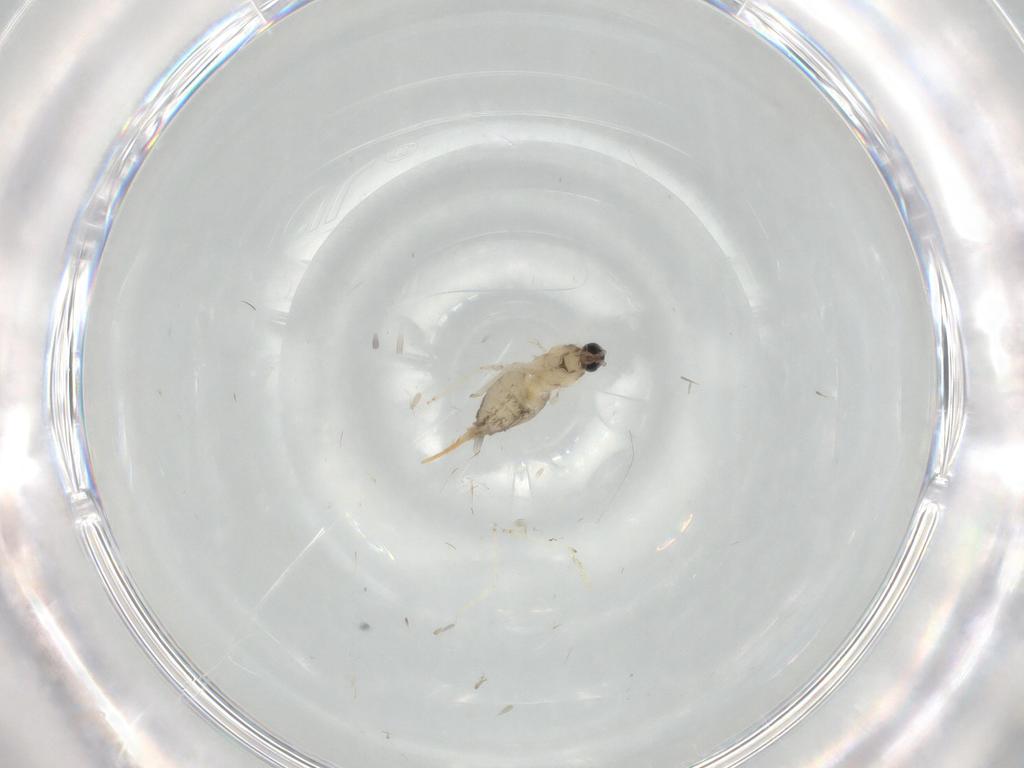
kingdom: Animalia
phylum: Arthropoda
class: Insecta
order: Diptera
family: Cecidomyiidae
